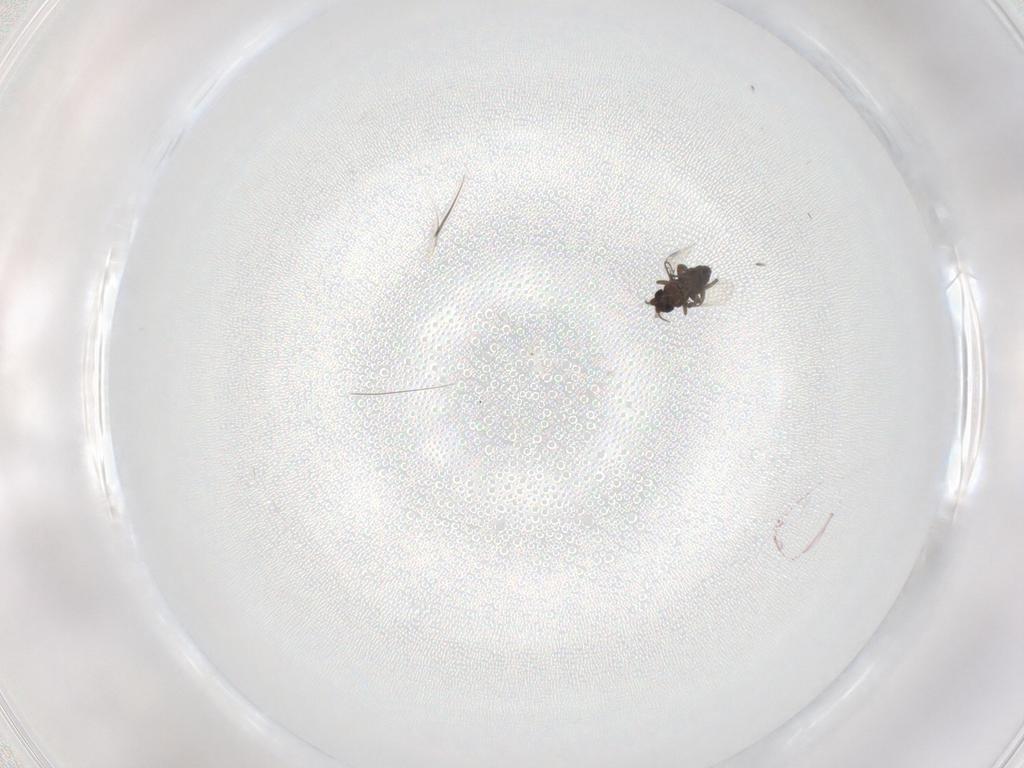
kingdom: Animalia
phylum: Arthropoda
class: Insecta
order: Diptera
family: Phoridae
